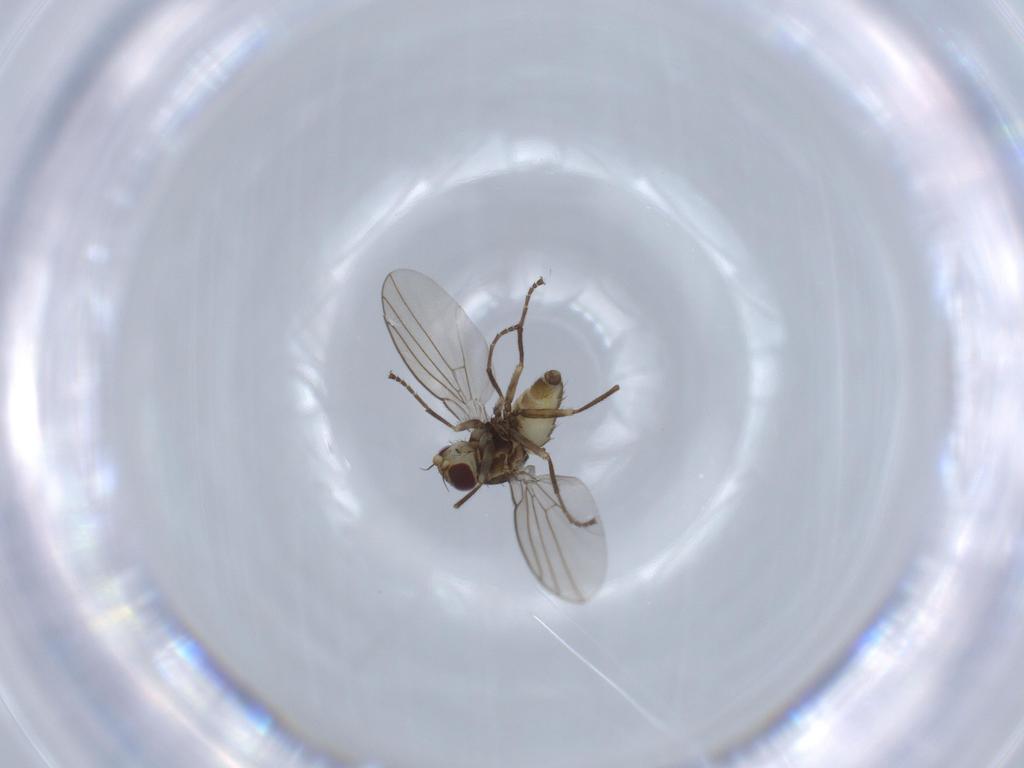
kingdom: Animalia
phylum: Arthropoda
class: Insecta
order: Diptera
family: Agromyzidae
